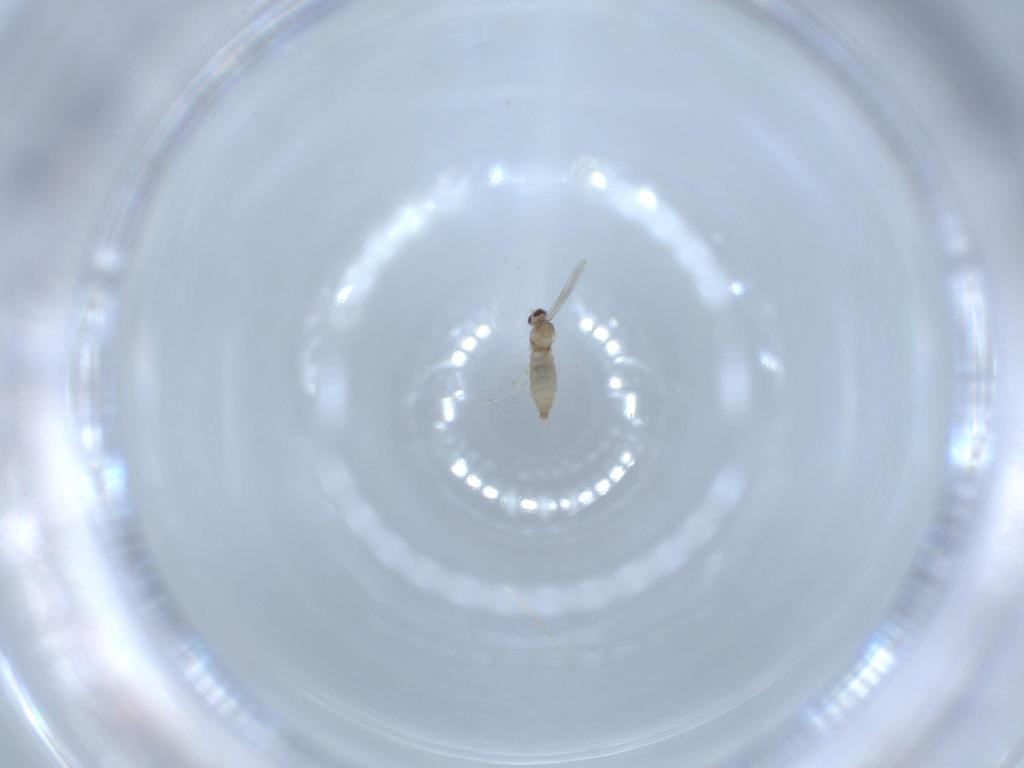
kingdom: Animalia
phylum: Arthropoda
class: Insecta
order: Diptera
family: Cecidomyiidae
